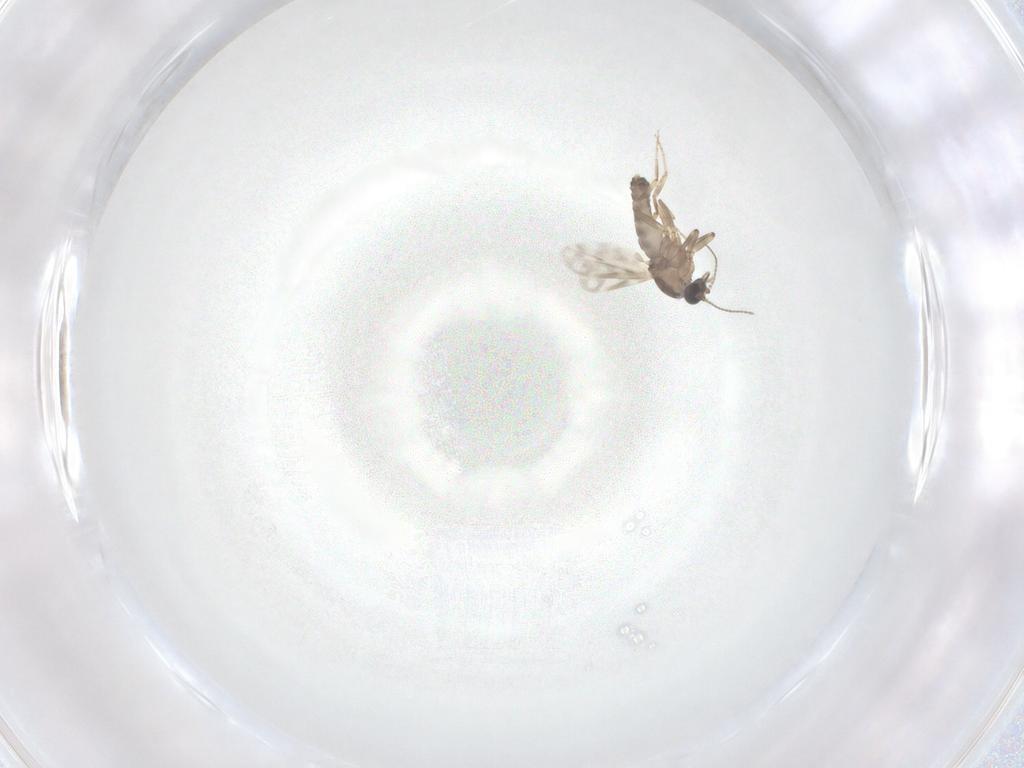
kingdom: Animalia
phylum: Arthropoda
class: Insecta
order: Diptera
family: Ceratopogonidae
